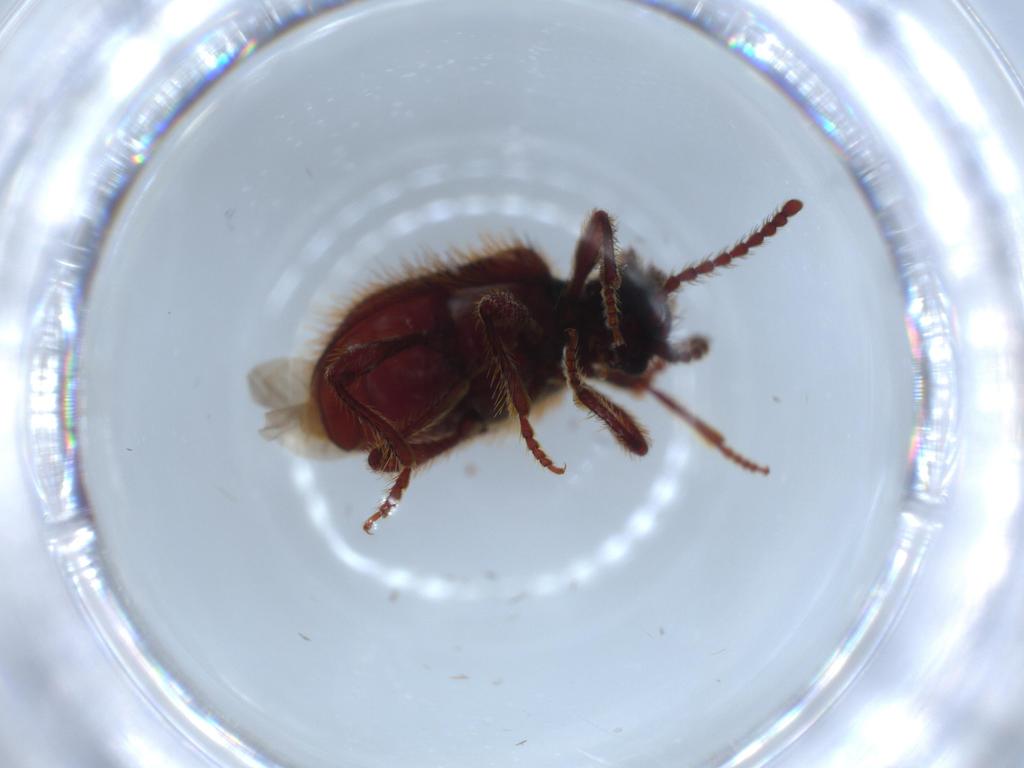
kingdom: Animalia
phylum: Arthropoda
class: Insecta
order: Coleoptera
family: Ptinidae
